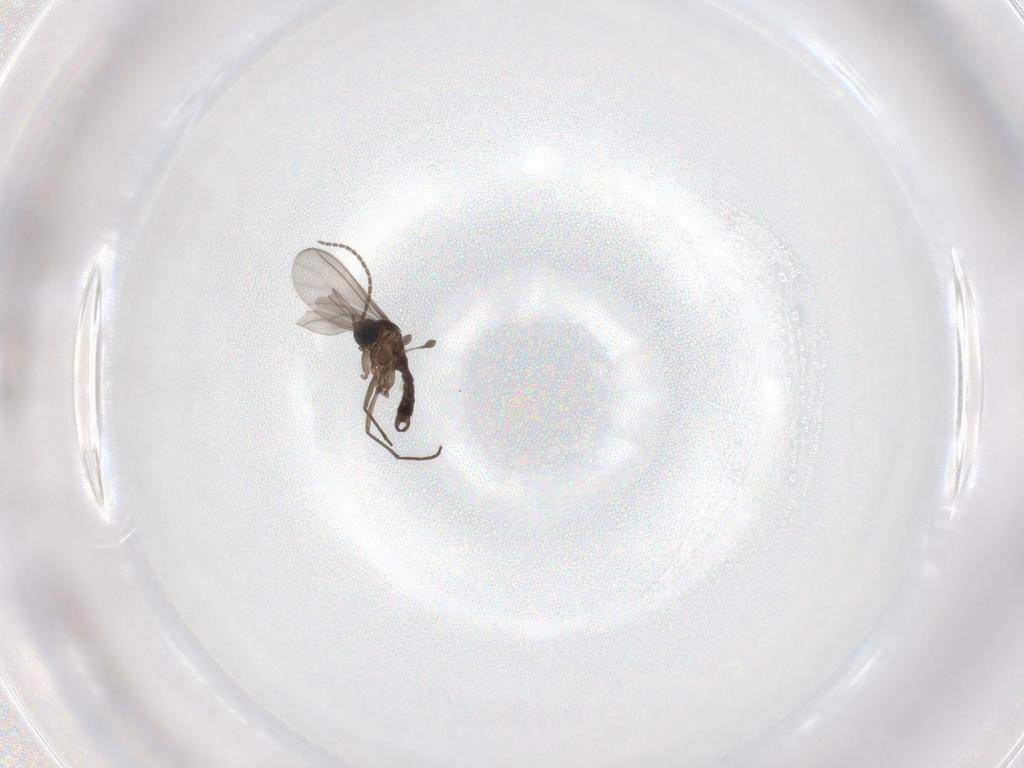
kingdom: Animalia
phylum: Arthropoda
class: Insecta
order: Diptera
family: Sciaridae
